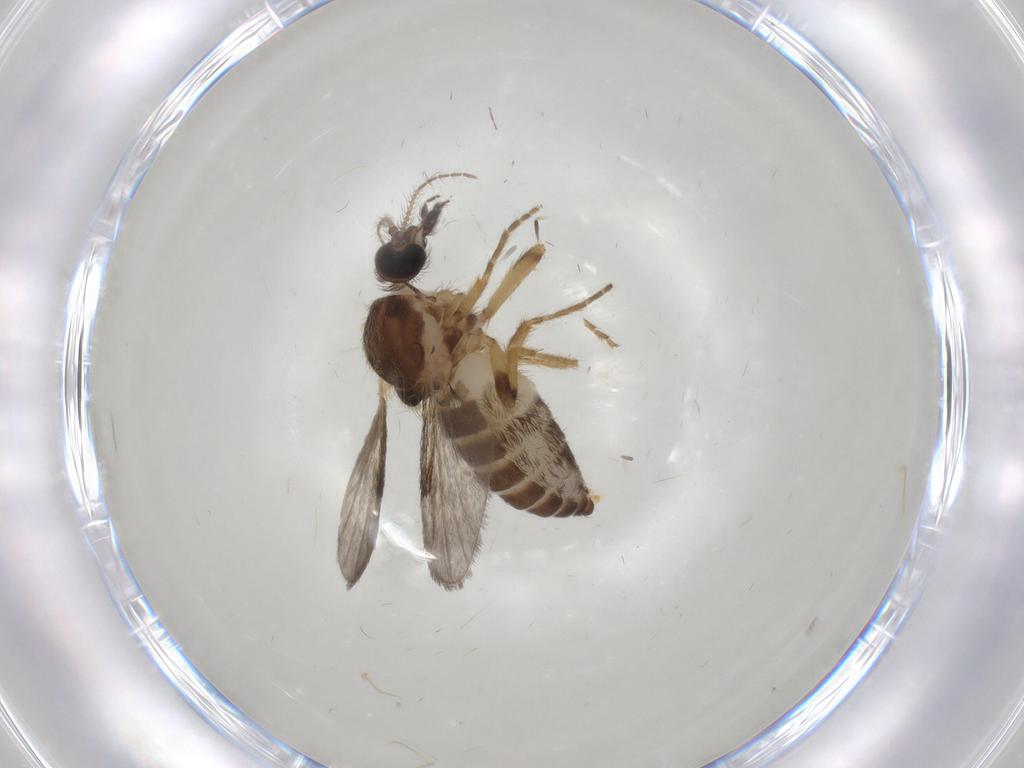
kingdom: Animalia
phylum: Arthropoda
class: Insecta
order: Diptera
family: Ceratopogonidae
